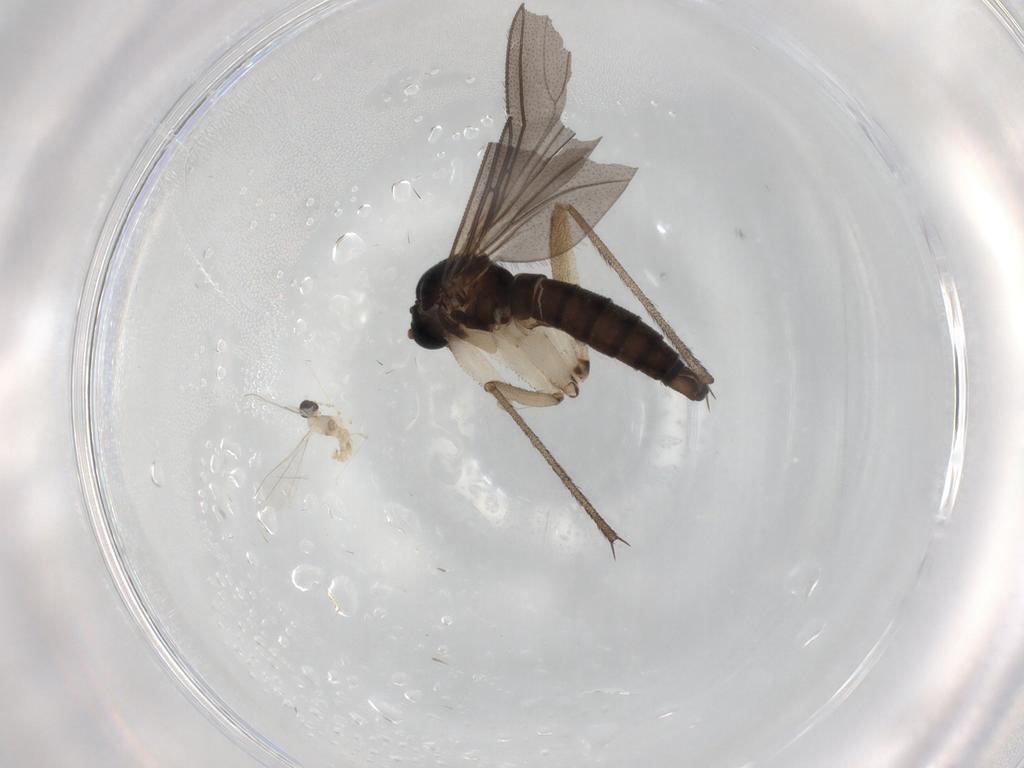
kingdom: Animalia
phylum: Arthropoda
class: Insecta
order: Diptera
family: Sciaridae
